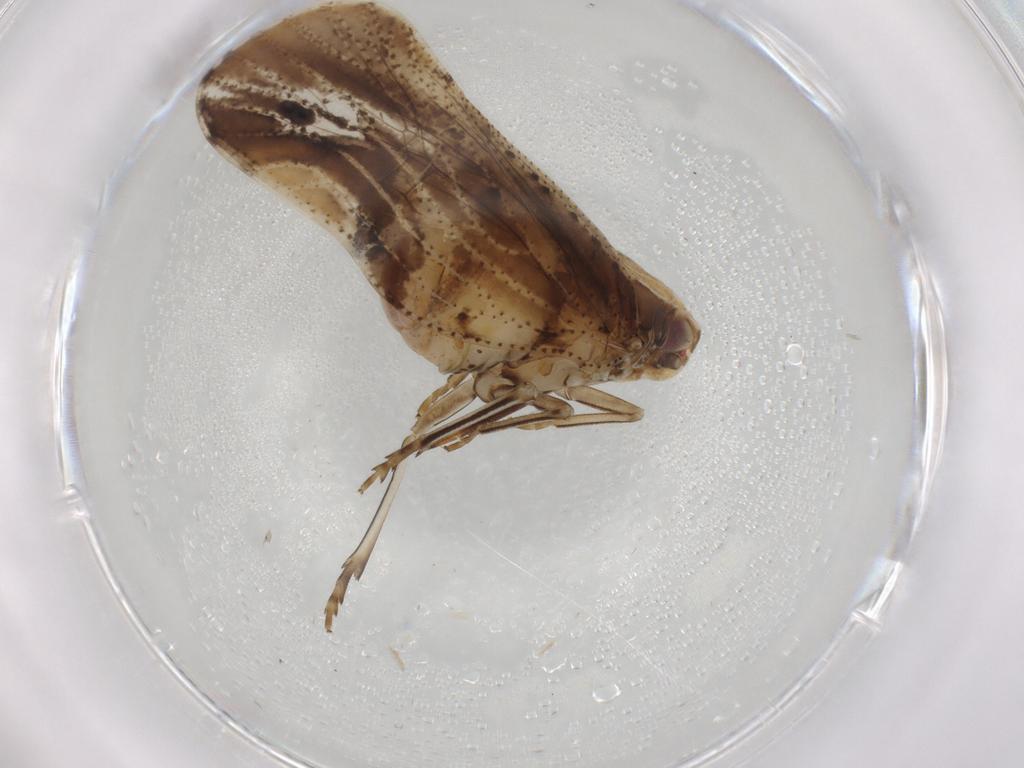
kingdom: Animalia
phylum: Arthropoda
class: Insecta
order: Hemiptera
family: Cixiidae
